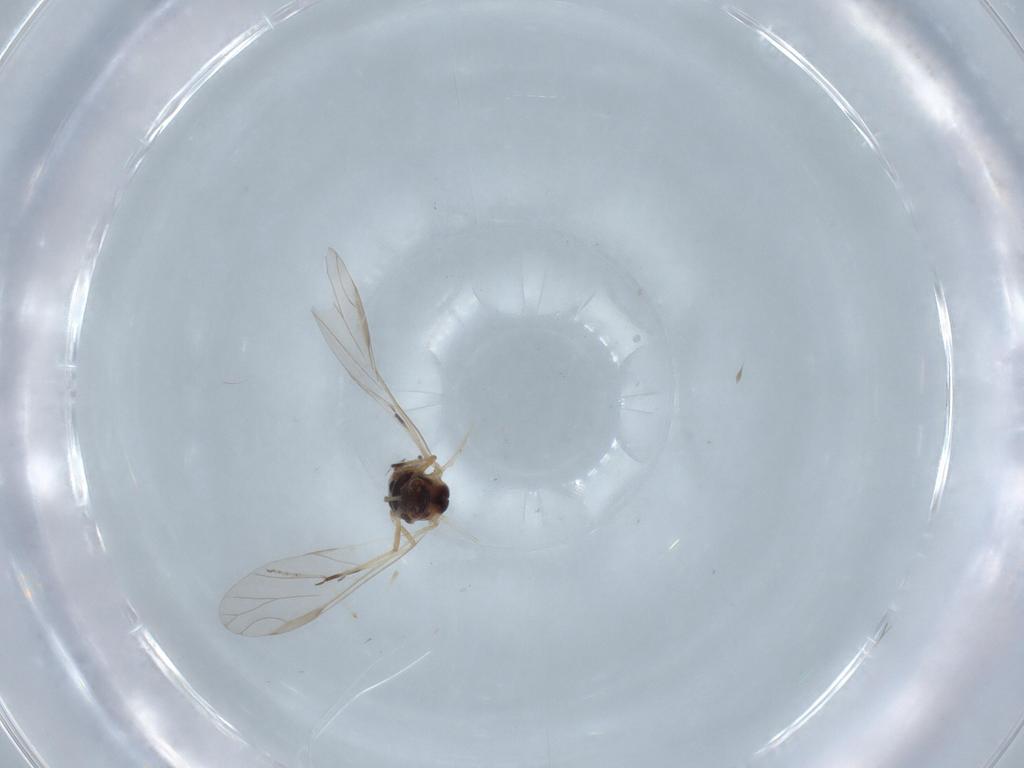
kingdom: Animalia
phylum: Arthropoda
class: Insecta
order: Hemiptera
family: Aphididae
